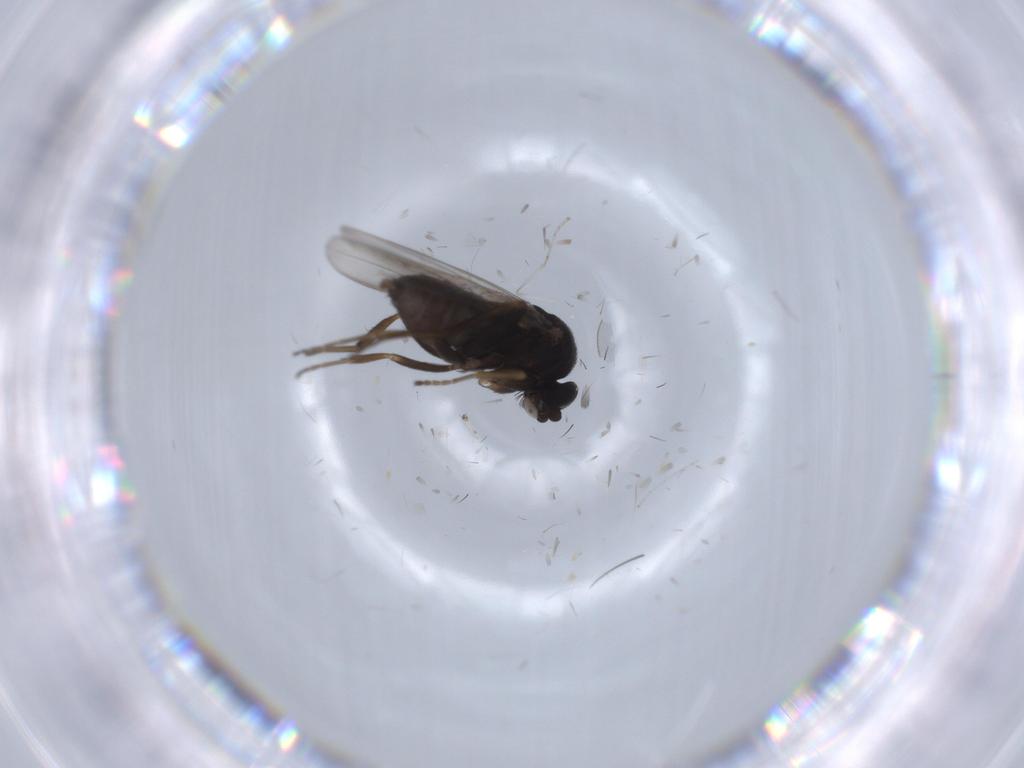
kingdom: Animalia
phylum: Arthropoda
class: Insecta
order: Diptera
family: Phoridae
